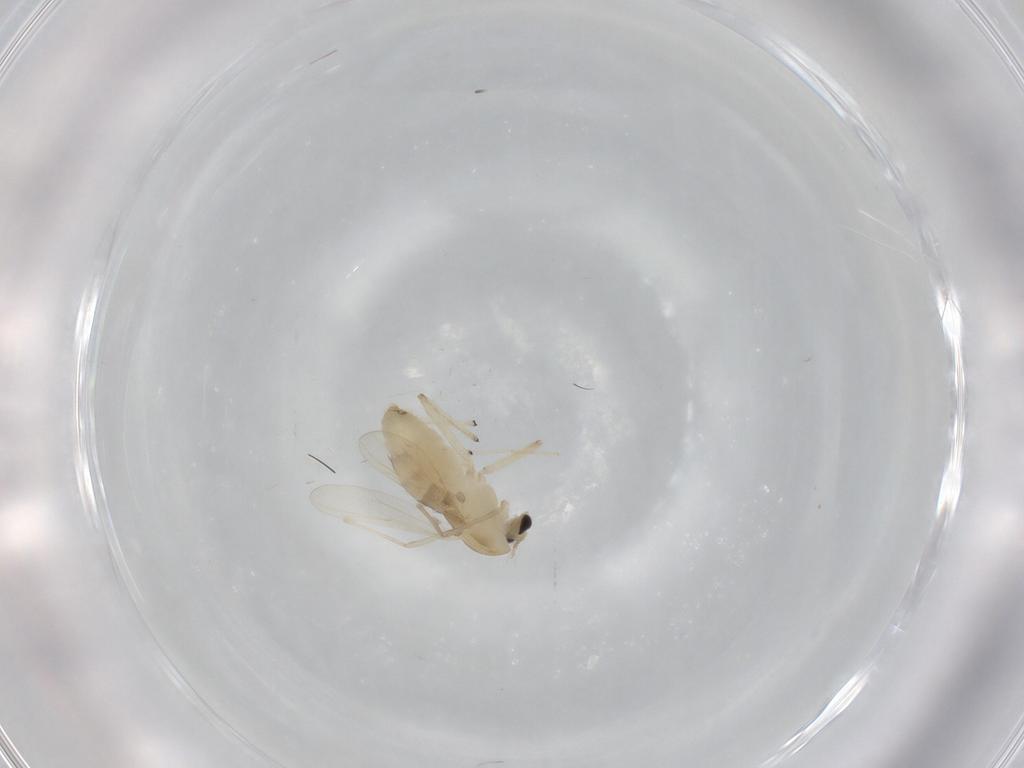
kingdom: Animalia
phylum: Arthropoda
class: Insecta
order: Diptera
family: Chironomidae
